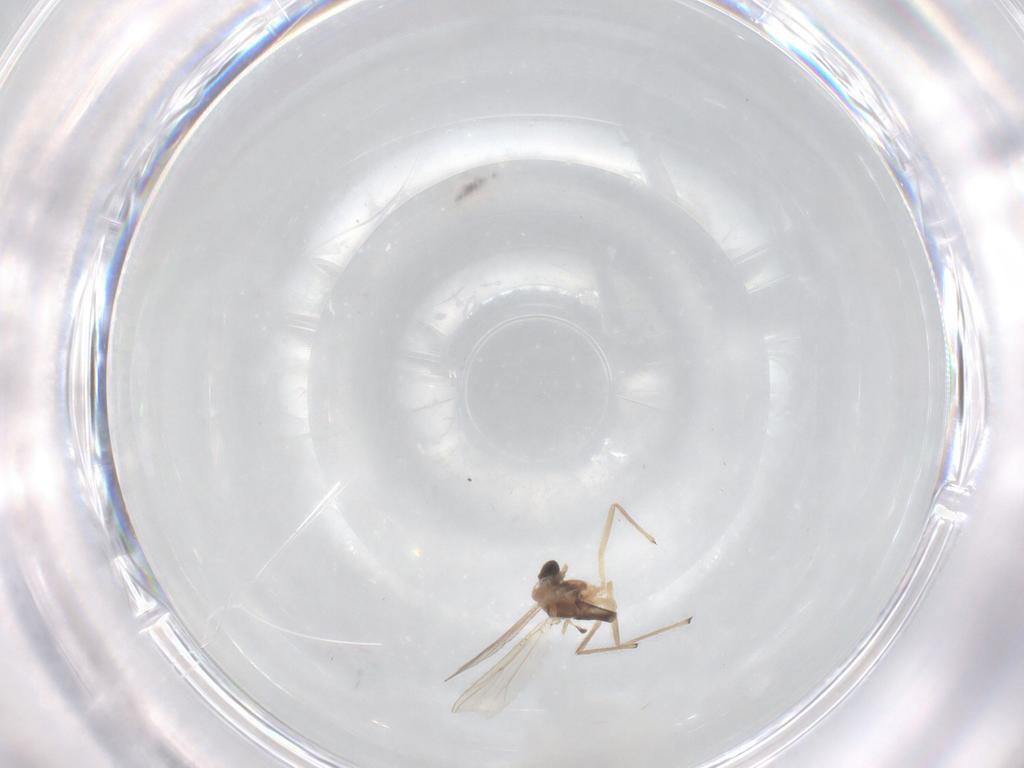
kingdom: Animalia
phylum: Arthropoda
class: Insecta
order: Diptera
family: Chironomidae
